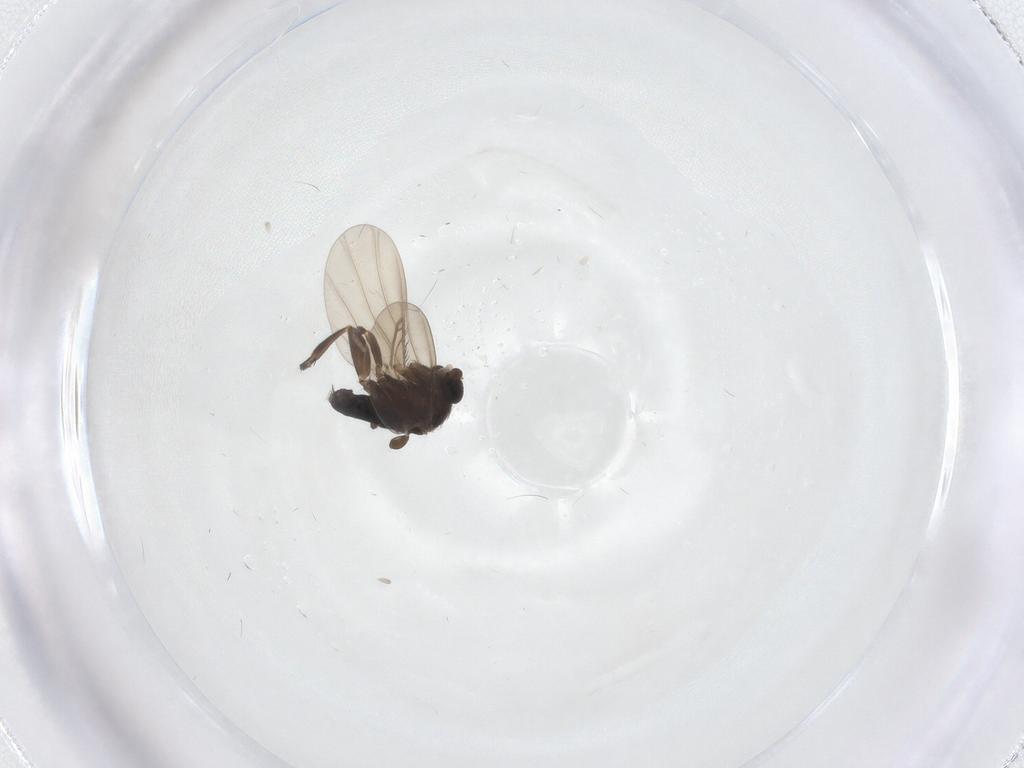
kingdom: Animalia
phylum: Arthropoda
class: Insecta
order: Diptera
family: Phoridae
